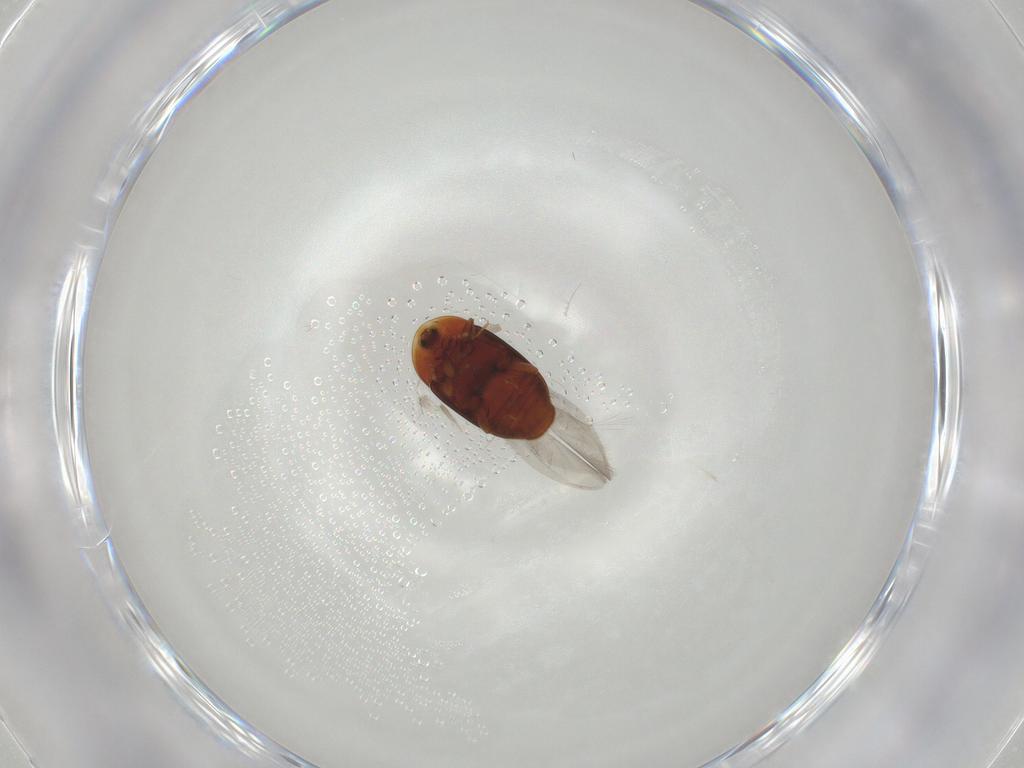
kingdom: Animalia
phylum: Arthropoda
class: Insecta
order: Coleoptera
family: Corylophidae
